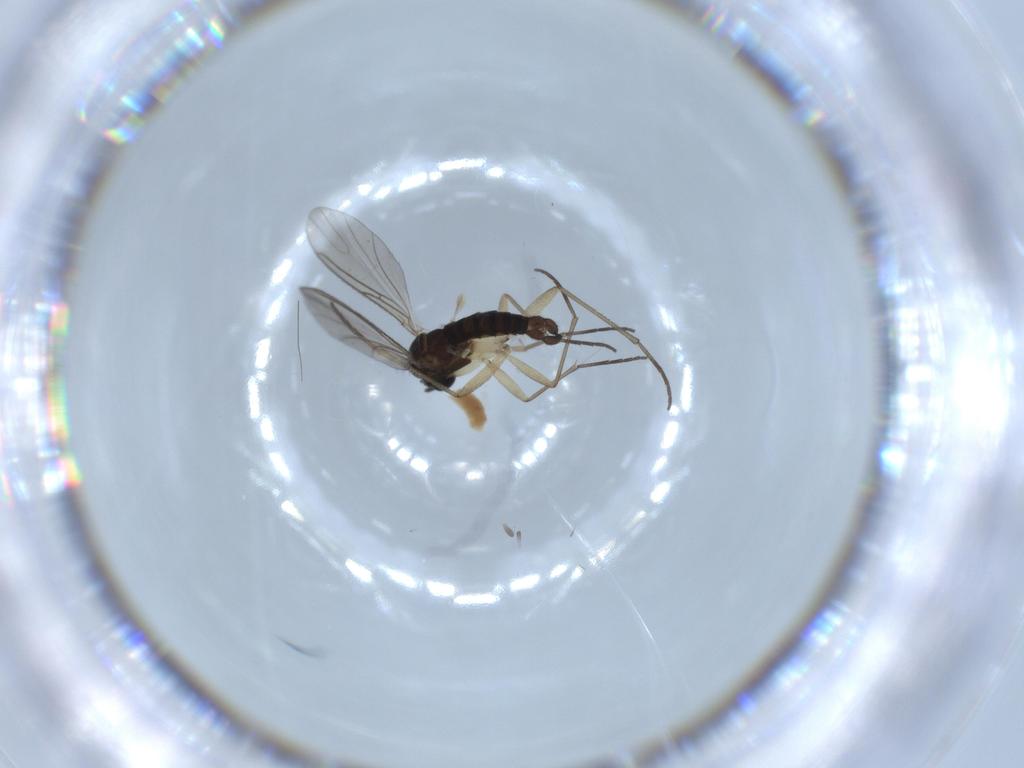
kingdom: Animalia
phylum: Arthropoda
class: Insecta
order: Diptera
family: Sciaridae
